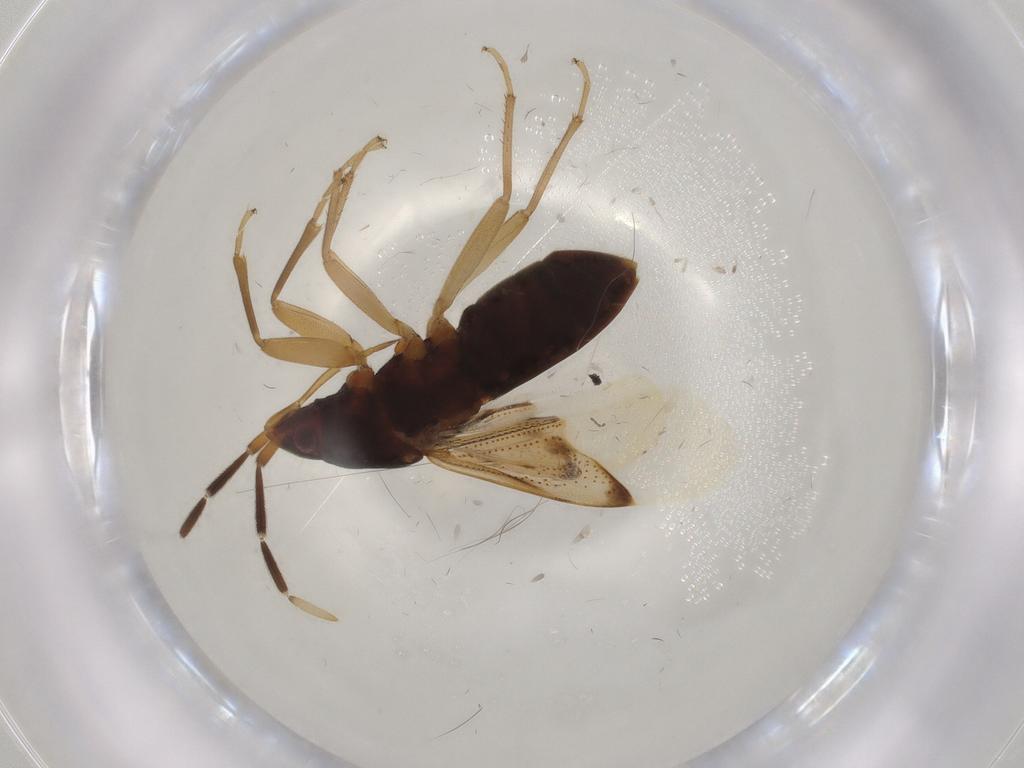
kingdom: Animalia
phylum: Arthropoda
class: Insecta
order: Hemiptera
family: Rhyparochromidae
